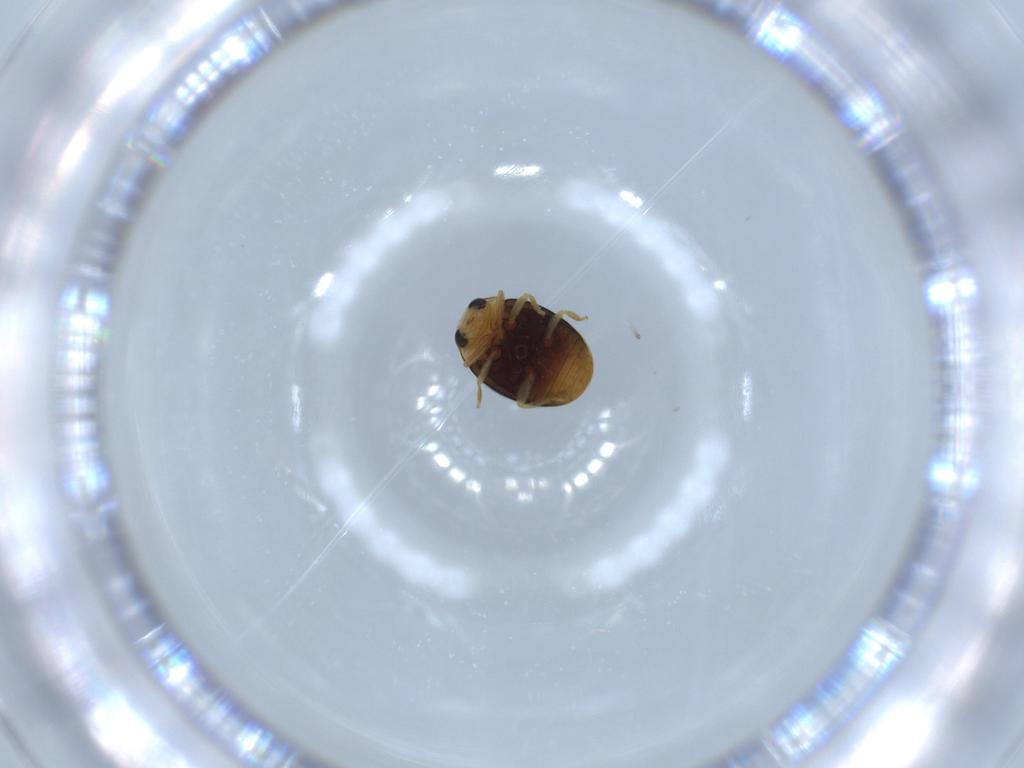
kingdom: Animalia
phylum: Arthropoda
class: Insecta
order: Coleoptera
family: Coccinellidae
